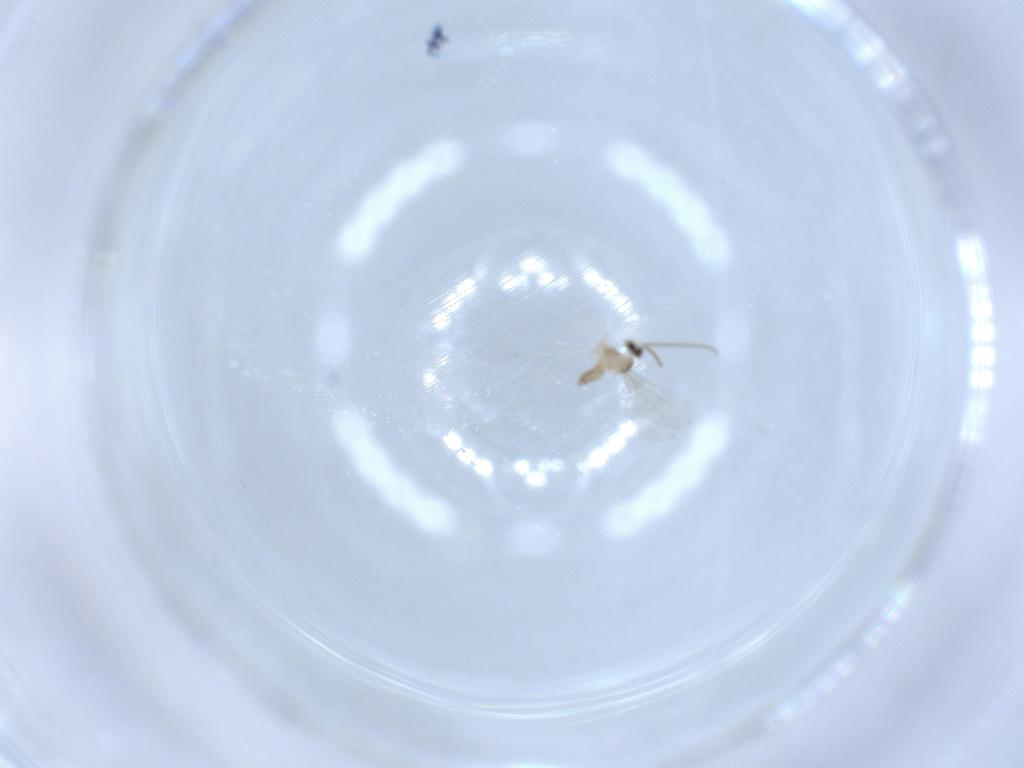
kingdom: Animalia
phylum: Arthropoda
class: Insecta
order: Diptera
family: Cecidomyiidae
